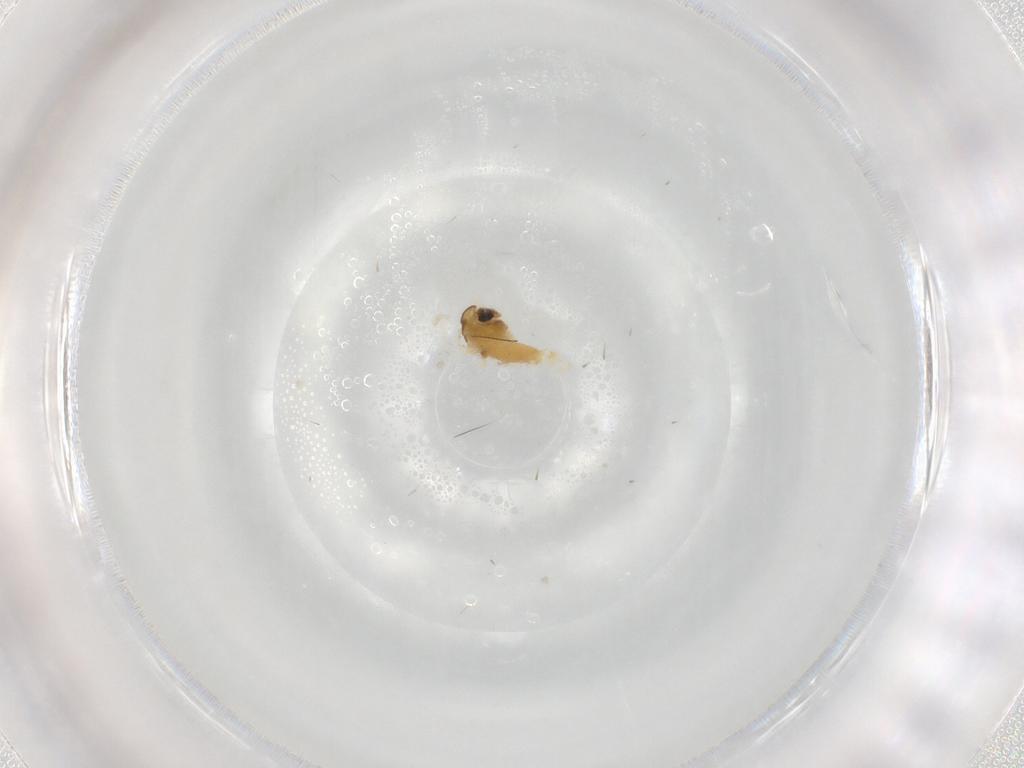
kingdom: Animalia
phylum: Arthropoda
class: Insecta
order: Diptera
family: Chironomidae
